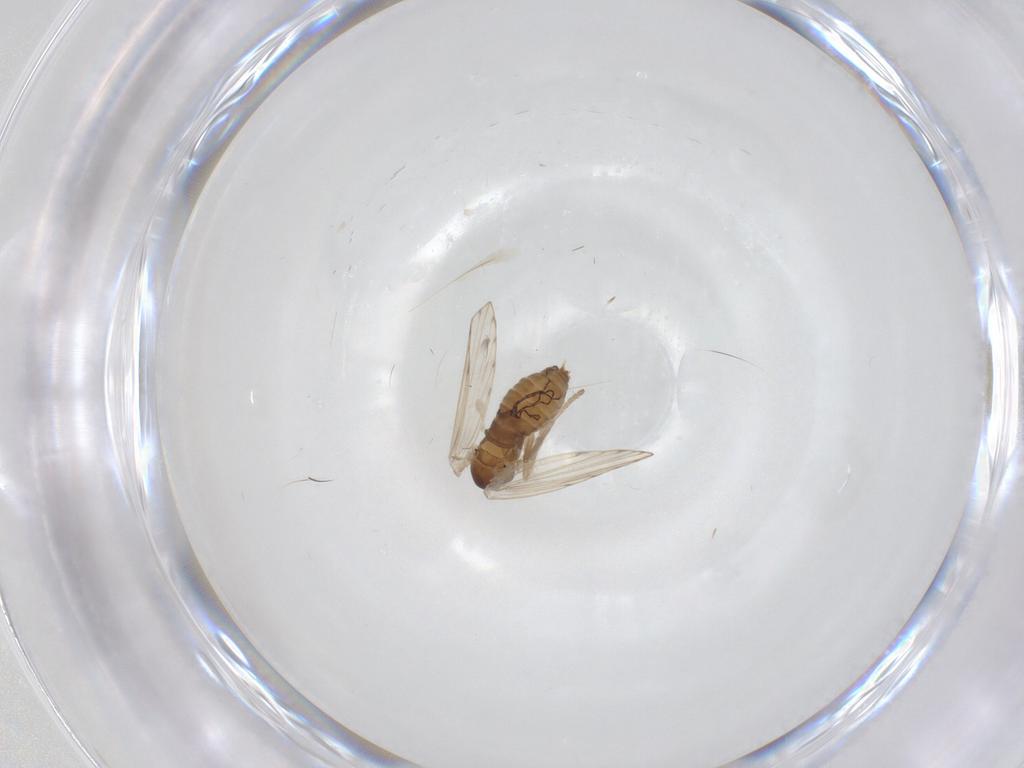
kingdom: Animalia
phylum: Arthropoda
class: Insecta
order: Diptera
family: Psychodidae
